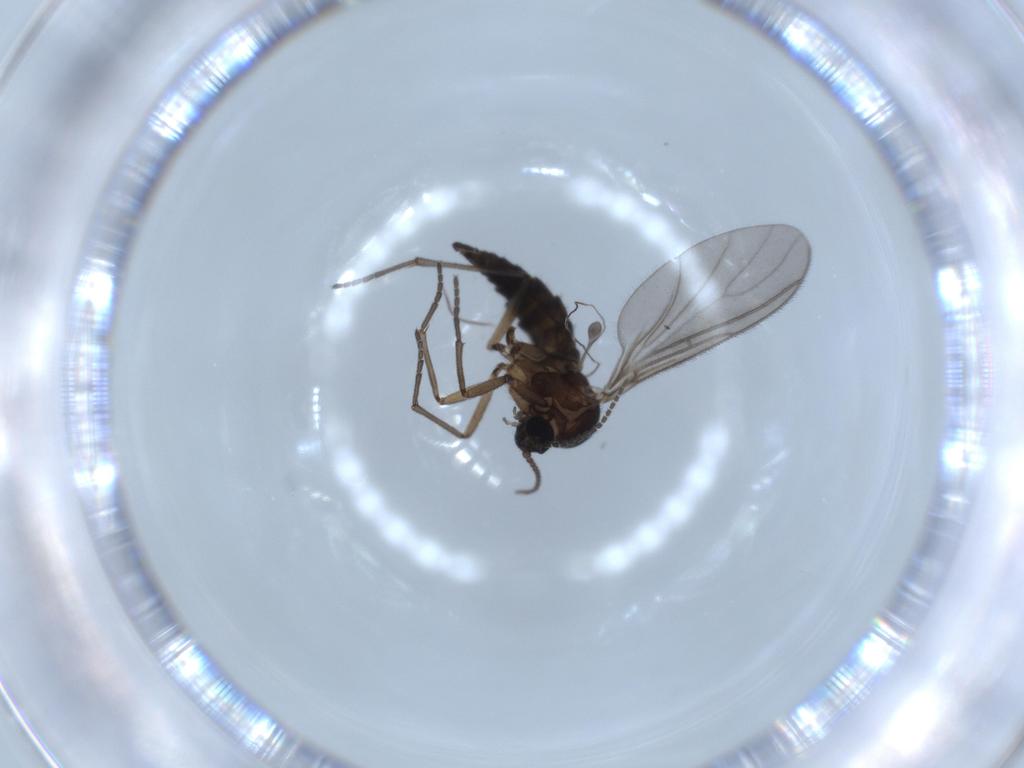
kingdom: Animalia
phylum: Arthropoda
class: Insecta
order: Diptera
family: Sciaridae
